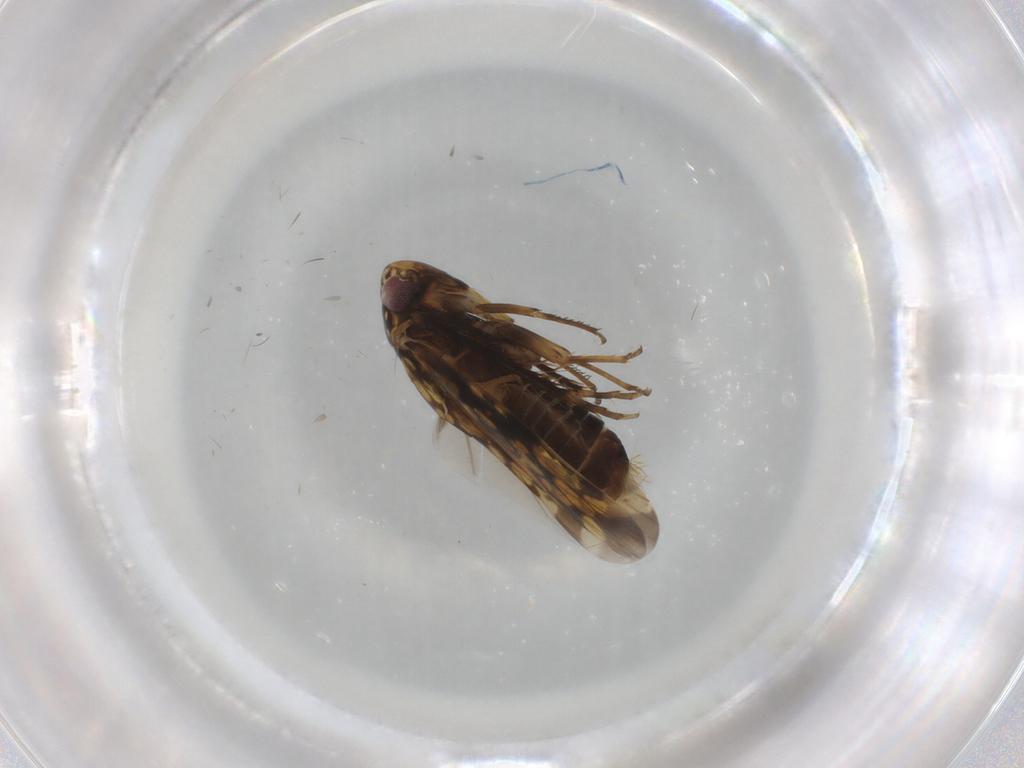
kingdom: Animalia
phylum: Arthropoda
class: Insecta
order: Hemiptera
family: Cicadellidae
